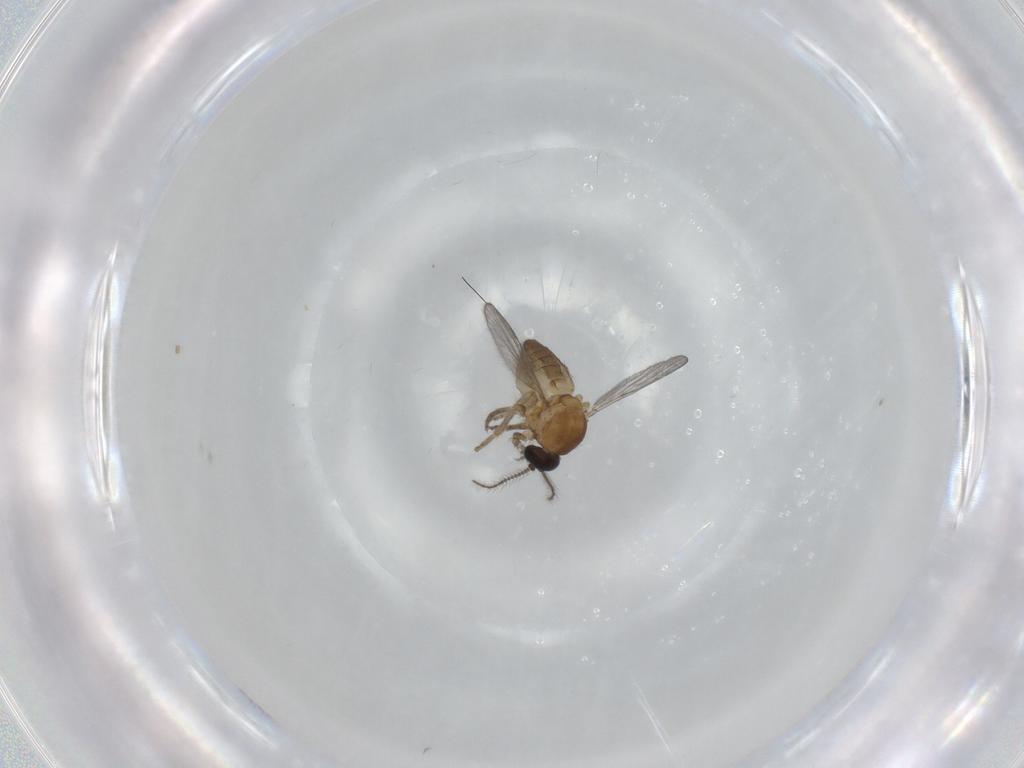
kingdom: Animalia
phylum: Arthropoda
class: Insecta
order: Diptera
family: Ceratopogonidae
